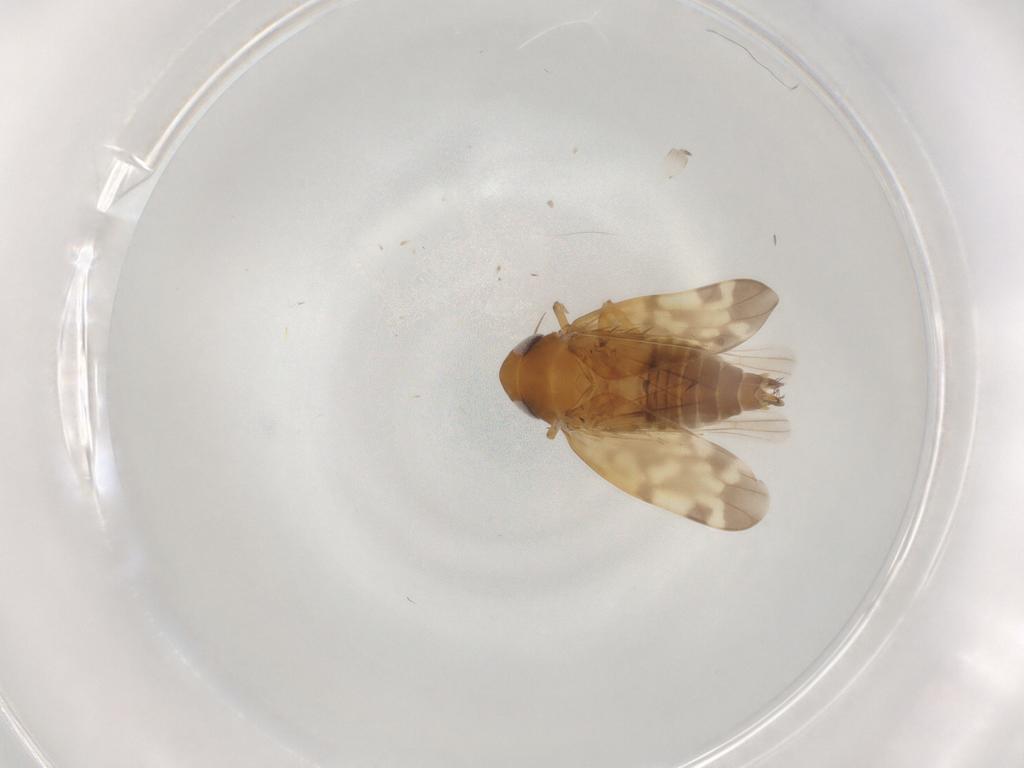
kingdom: Animalia
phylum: Arthropoda
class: Insecta
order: Hemiptera
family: Cicadellidae
